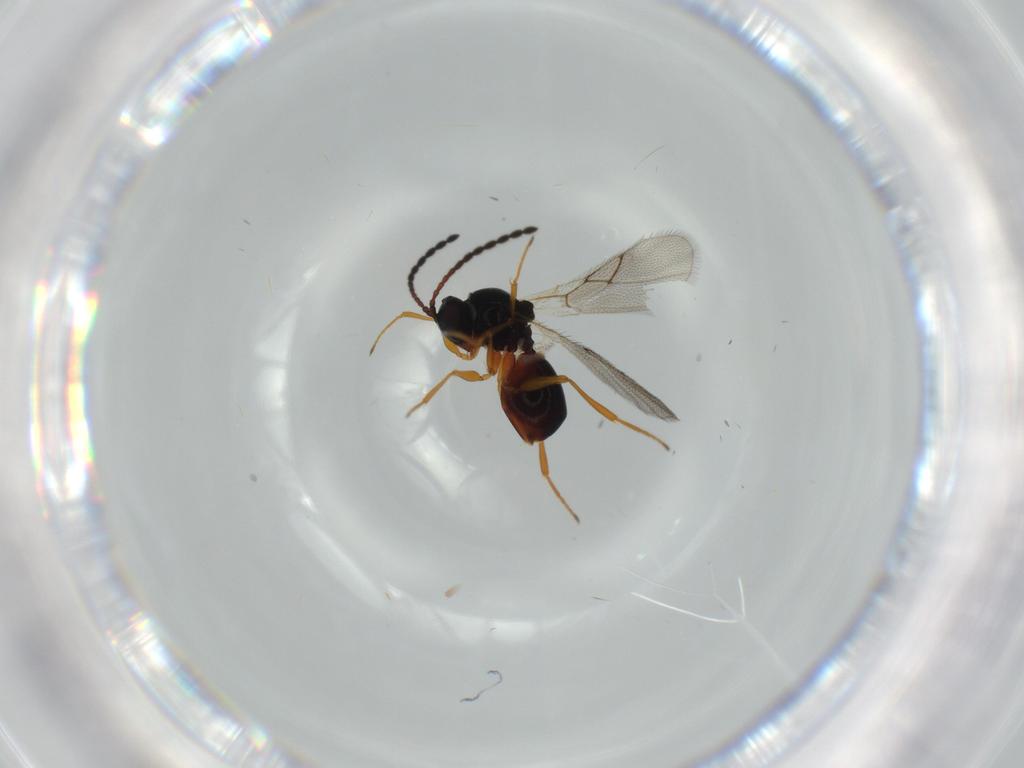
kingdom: Animalia
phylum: Arthropoda
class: Insecta
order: Hymenoptera
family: Figitidae
